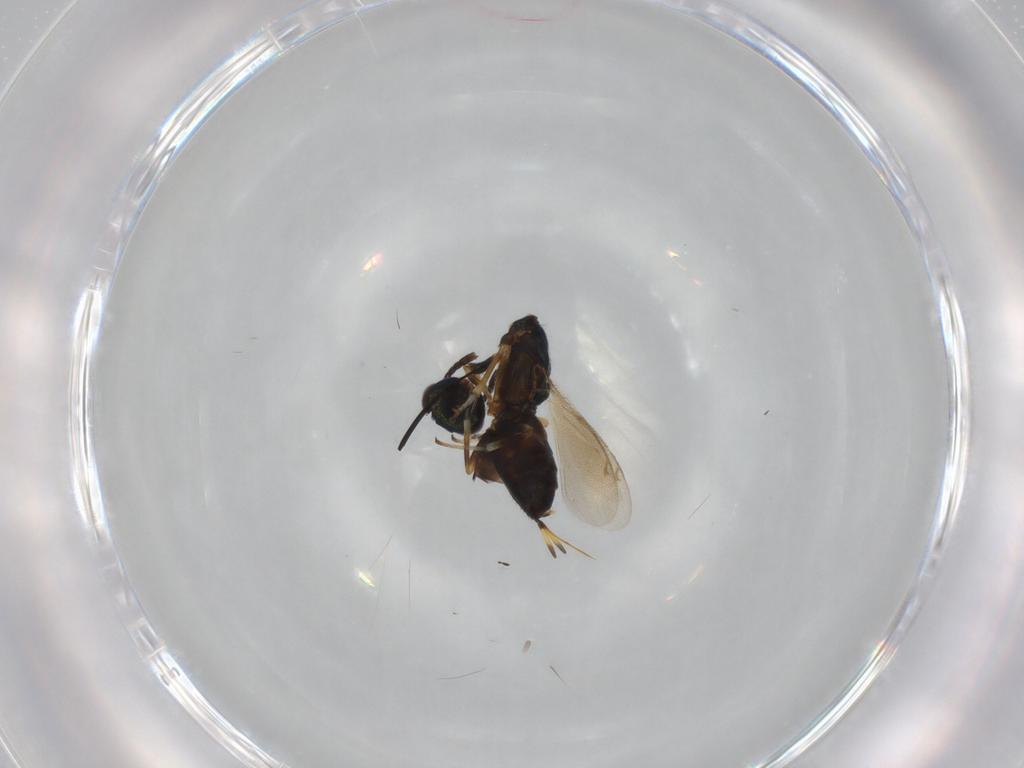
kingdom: Animalia
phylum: Arthropoda
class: Insecta
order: Hymenoptera
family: Eupelmidae
